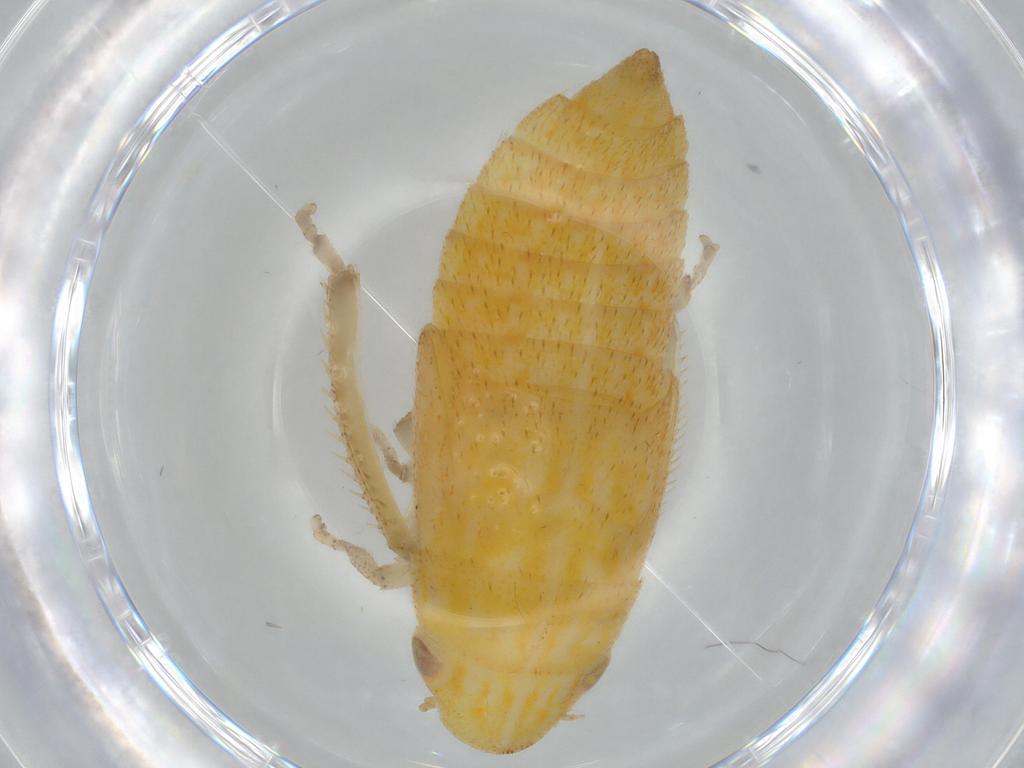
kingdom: Animalia
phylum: Arthropoda
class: Insecta
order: Hemiptera
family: Cicadellidae
